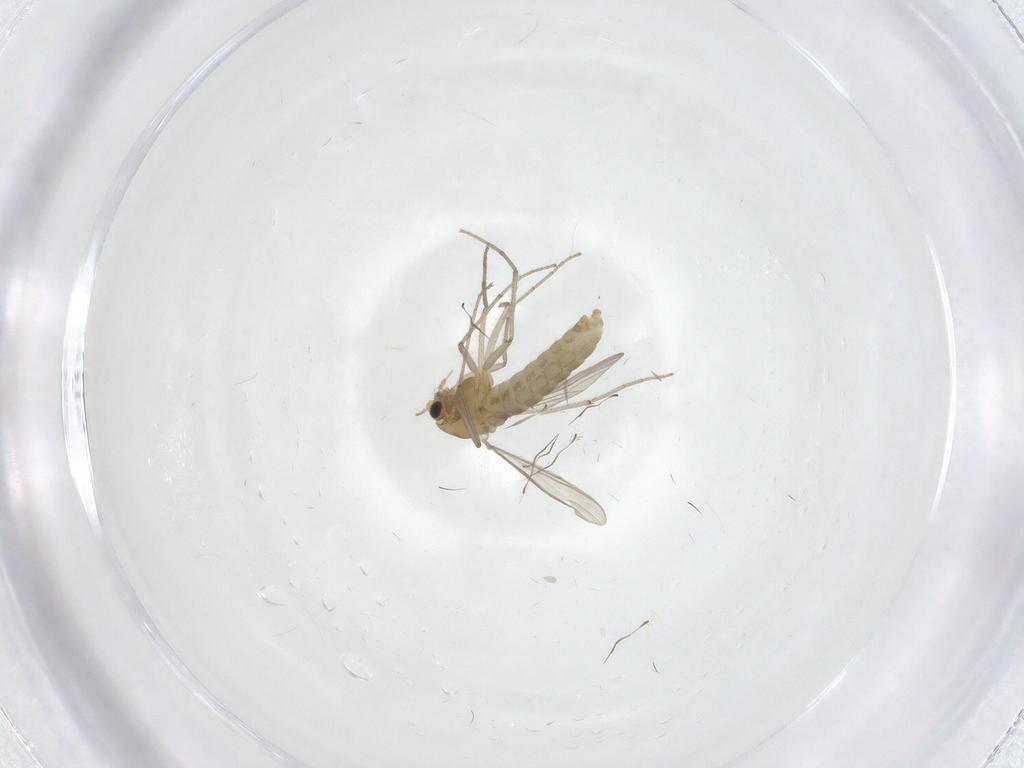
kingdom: Animalia
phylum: Arthropoda
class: Insecta
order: Diptera
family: Chironomidae
